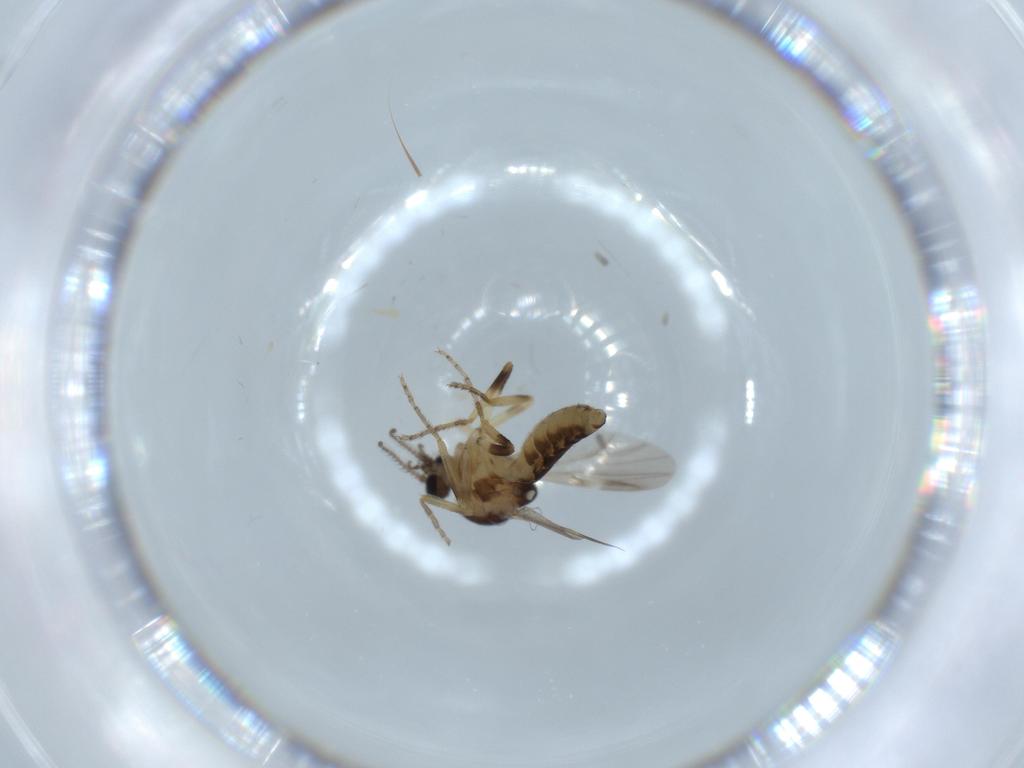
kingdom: Animalia
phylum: Arthropoda
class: Insecta
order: Diptera
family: Ceratopogonidae
